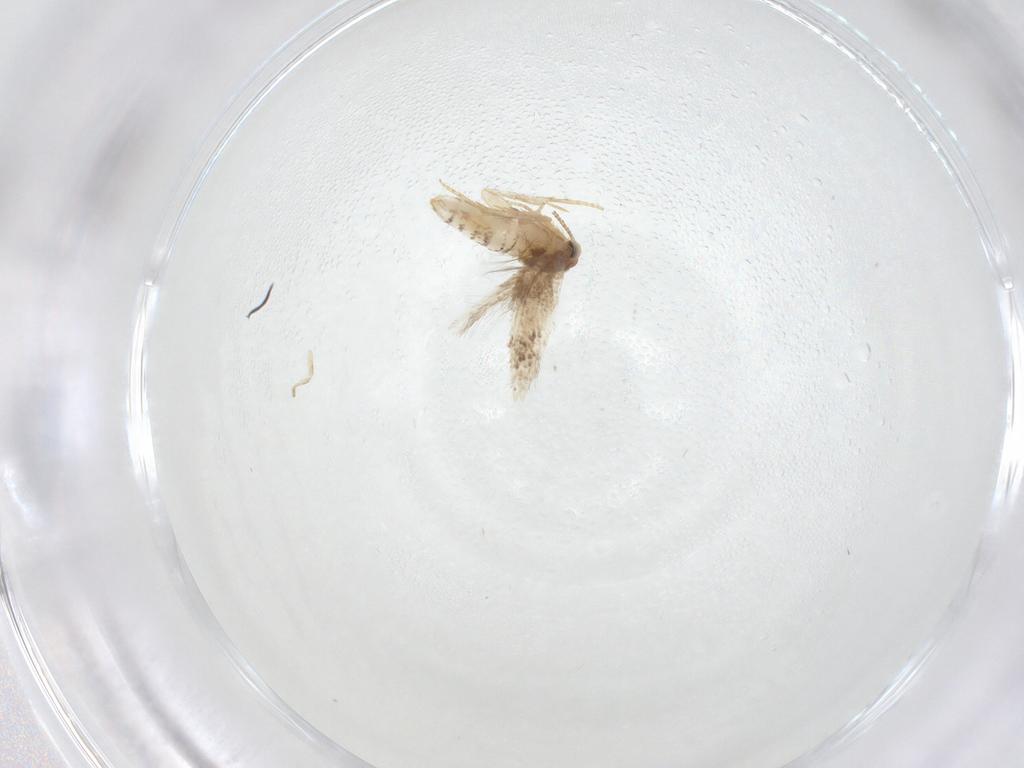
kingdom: Animalia
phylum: Arthropoda
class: Insecta
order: Lepidoptera
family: Nepticulidae
